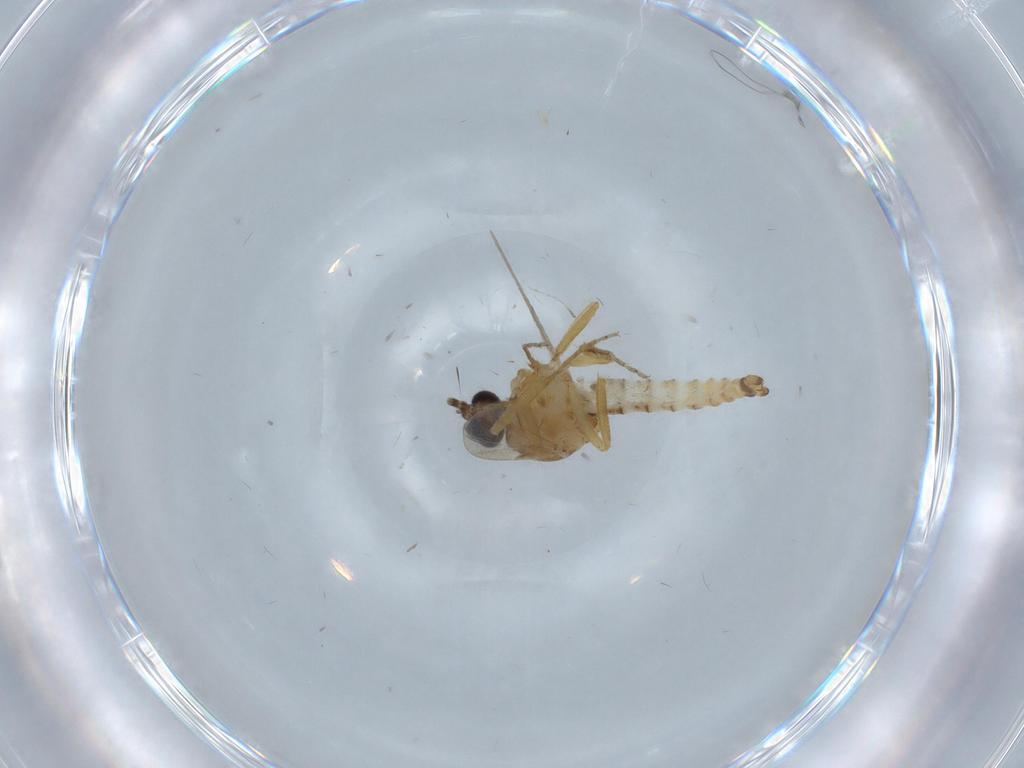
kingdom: Animalia
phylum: Arthropoda
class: Insecta
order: Diptera
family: Ceratopogonidae
